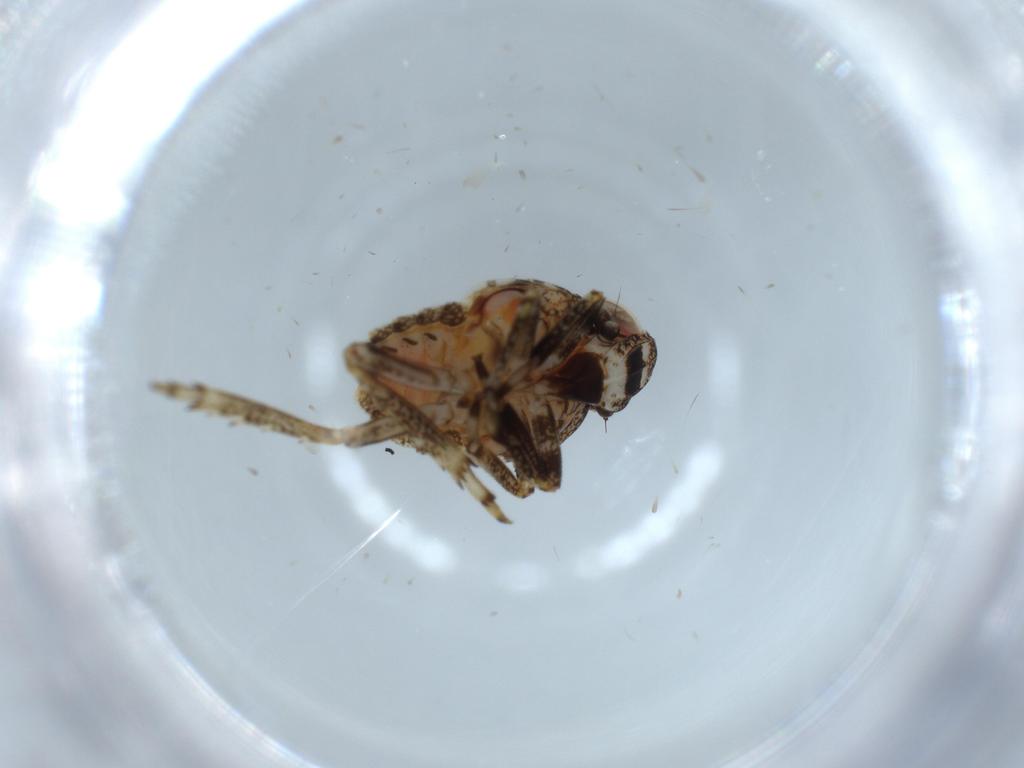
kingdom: Animalia
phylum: Arthropoda
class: Insecta
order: Hemiptera
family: Issidae
